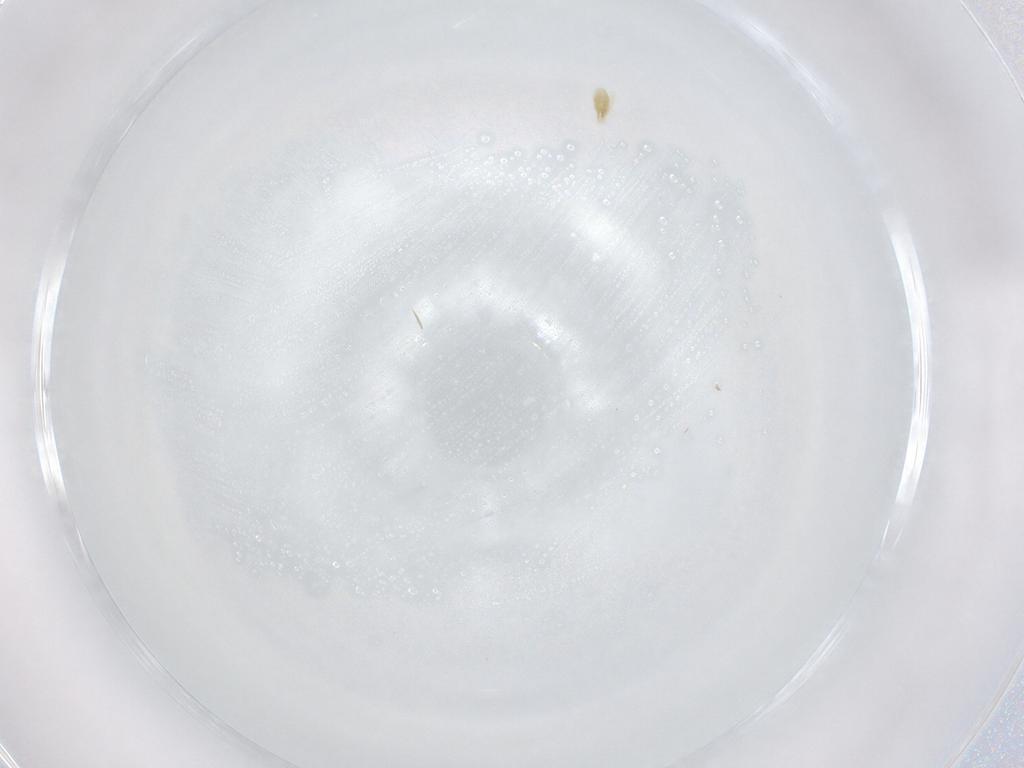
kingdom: Animalia
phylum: Arthropoda
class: Arachnida
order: Trombidiformes
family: Eupodidae
